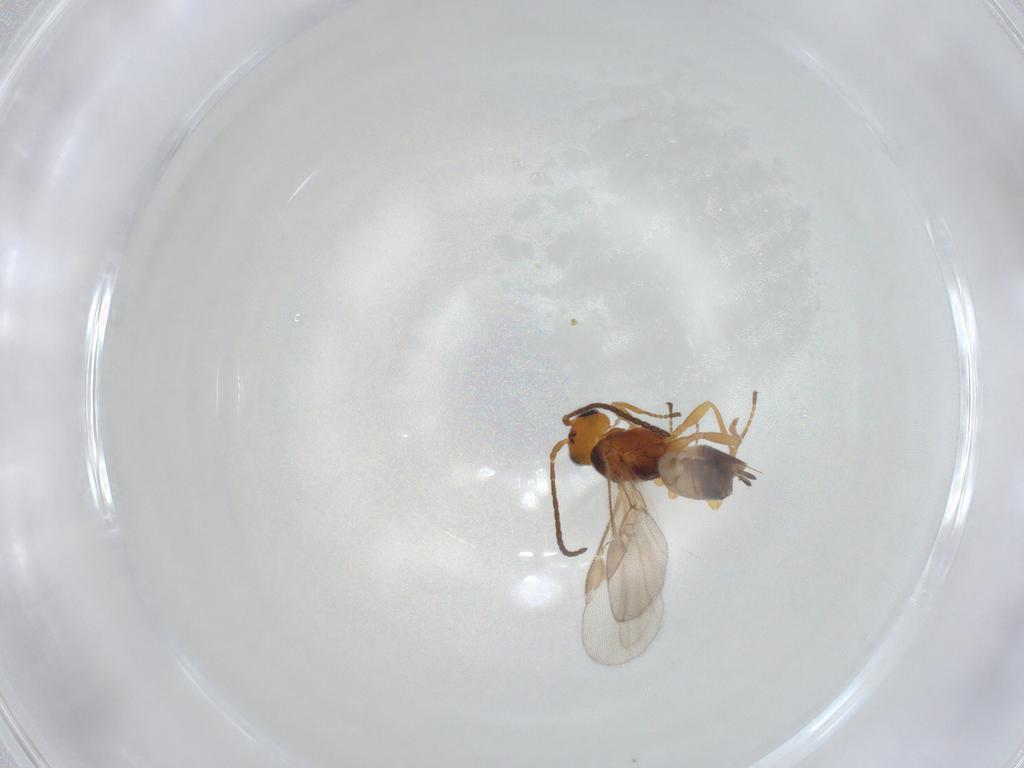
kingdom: Animalia
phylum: Arthropoda
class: Insecta
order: Hymenoptera
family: Braconidae
